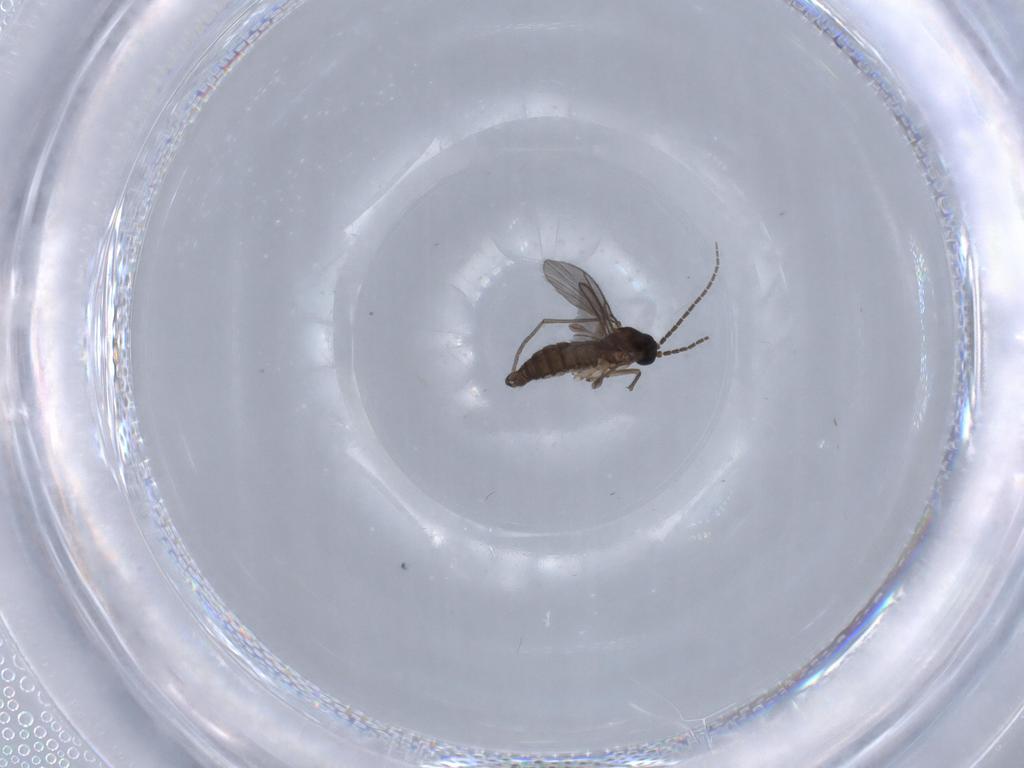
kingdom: Animalia
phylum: Arthropoda
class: Insecta
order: Diptera
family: Sciaridae
